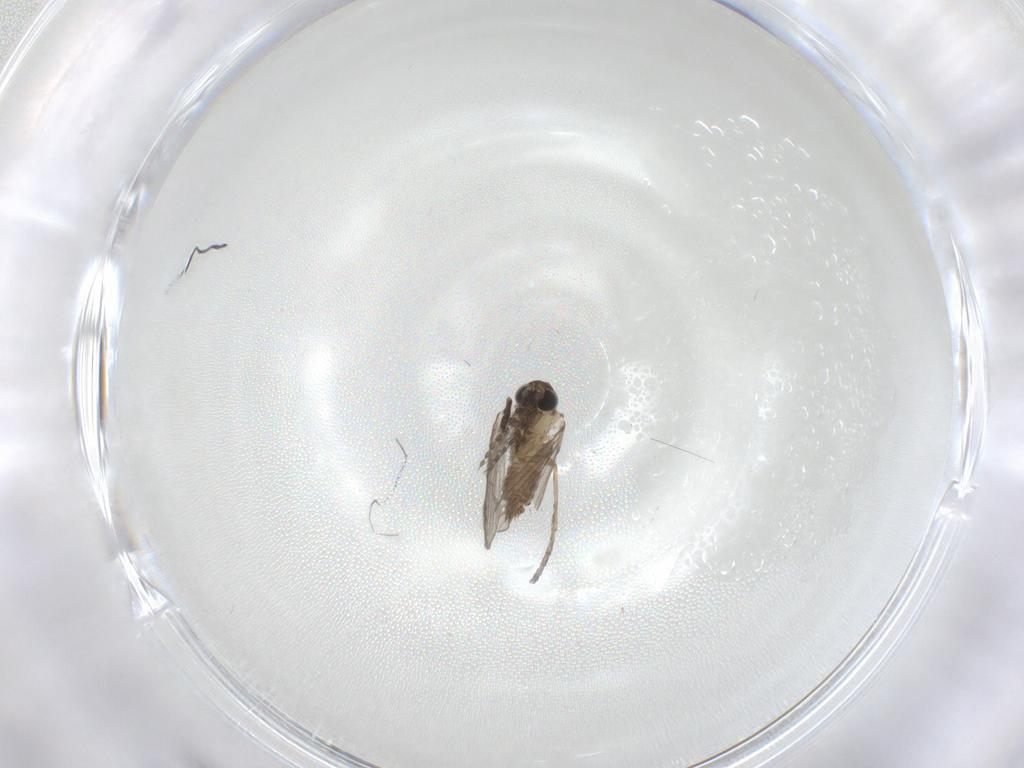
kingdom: Animalia
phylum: Arthropoda
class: Insecta
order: Diptera
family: Psychodidae
